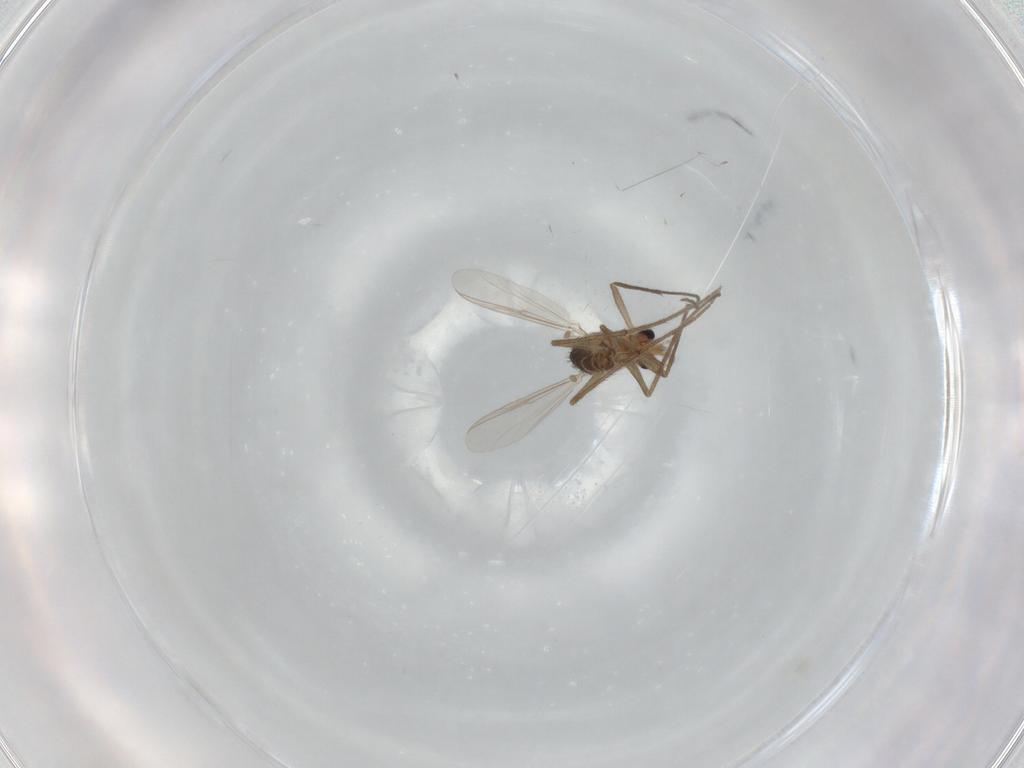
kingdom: Animalia
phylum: Arthropoda
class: Insecta
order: Diptera
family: Chironomidae
